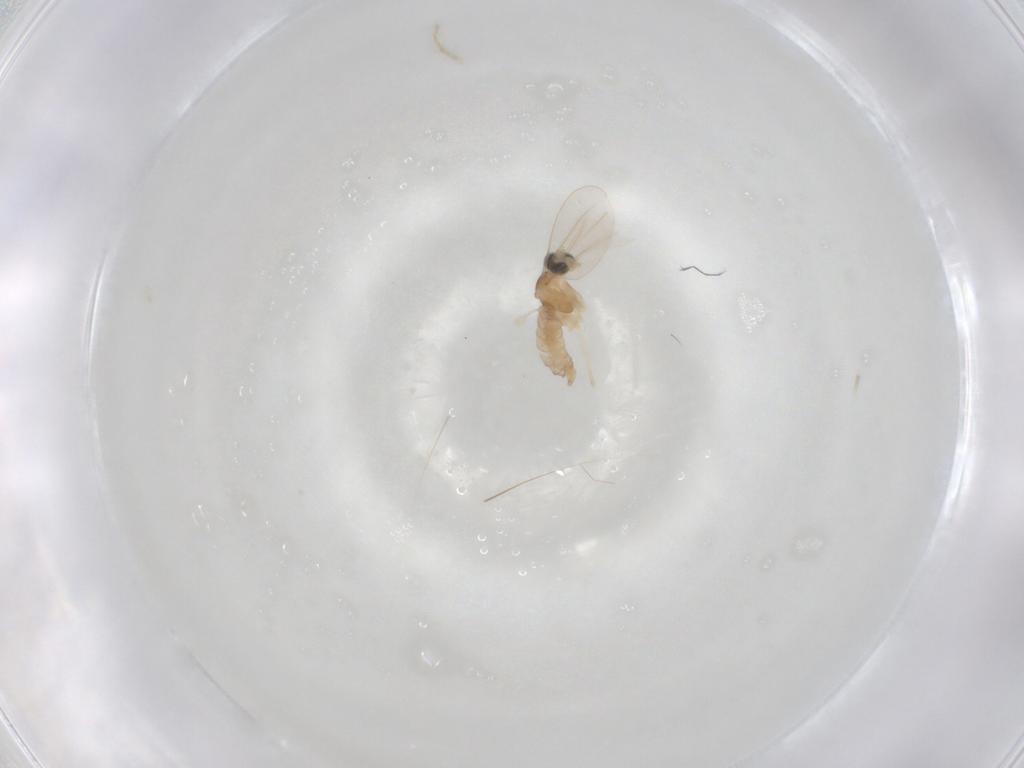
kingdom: Animalia
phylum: Arthropoda
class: Insecta
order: Diptera
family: Cecidomyiidae
